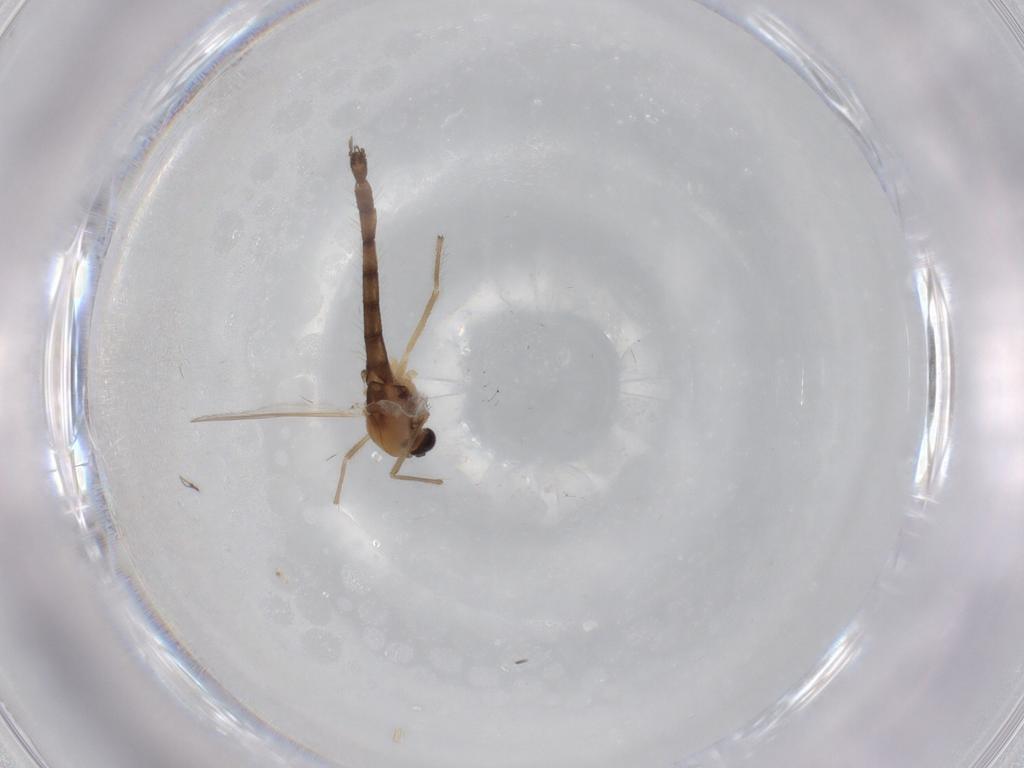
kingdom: Animalia
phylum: Arthropoda
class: Insecta
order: Diptera
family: Chironomidae
